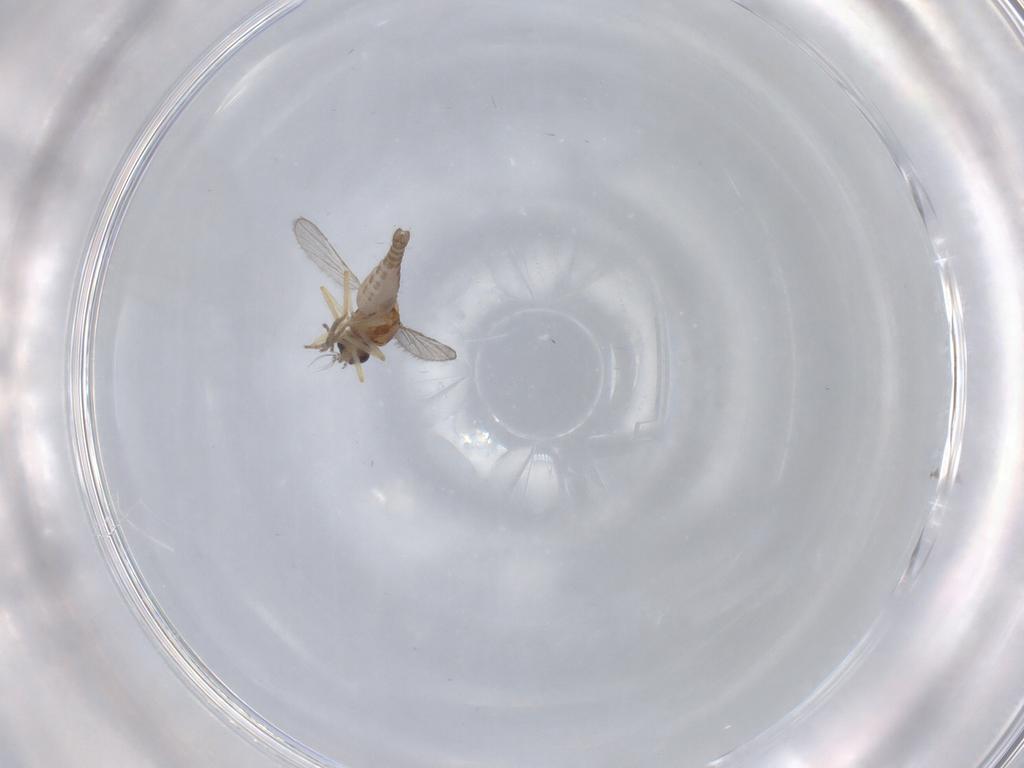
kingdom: Animalia
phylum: Arthropoda
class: Insecta
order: Diptera
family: Ceratopogonidae
